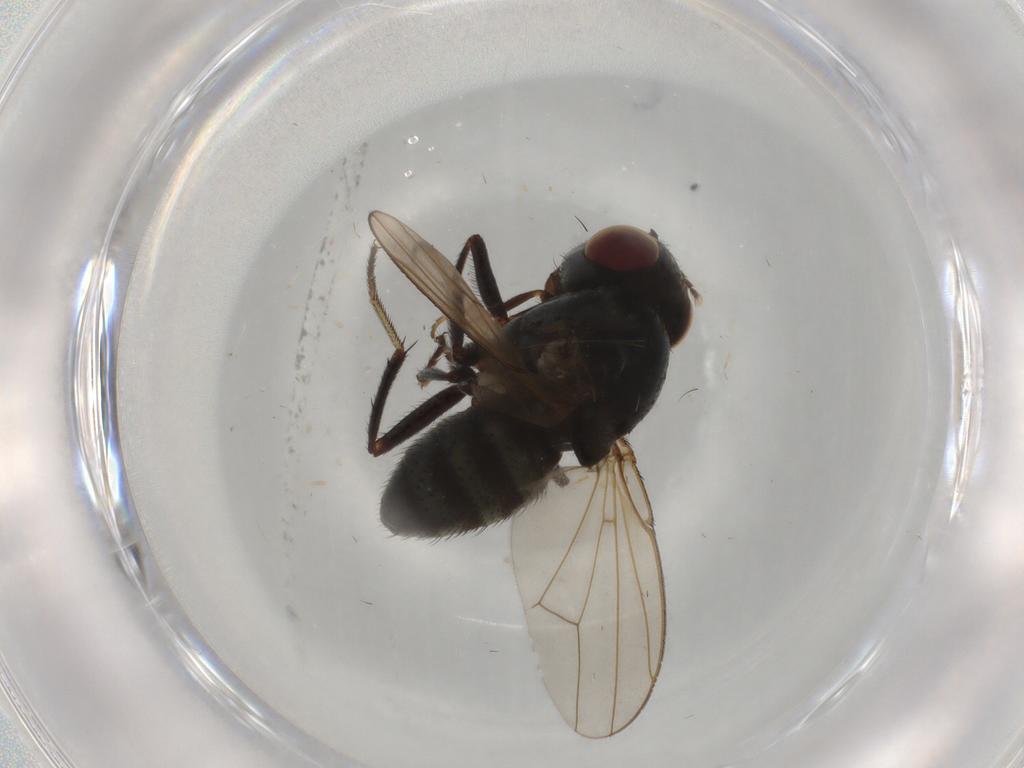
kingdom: Animalia
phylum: Arthropoda
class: Insecta
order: Diptera
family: Ephydridae
